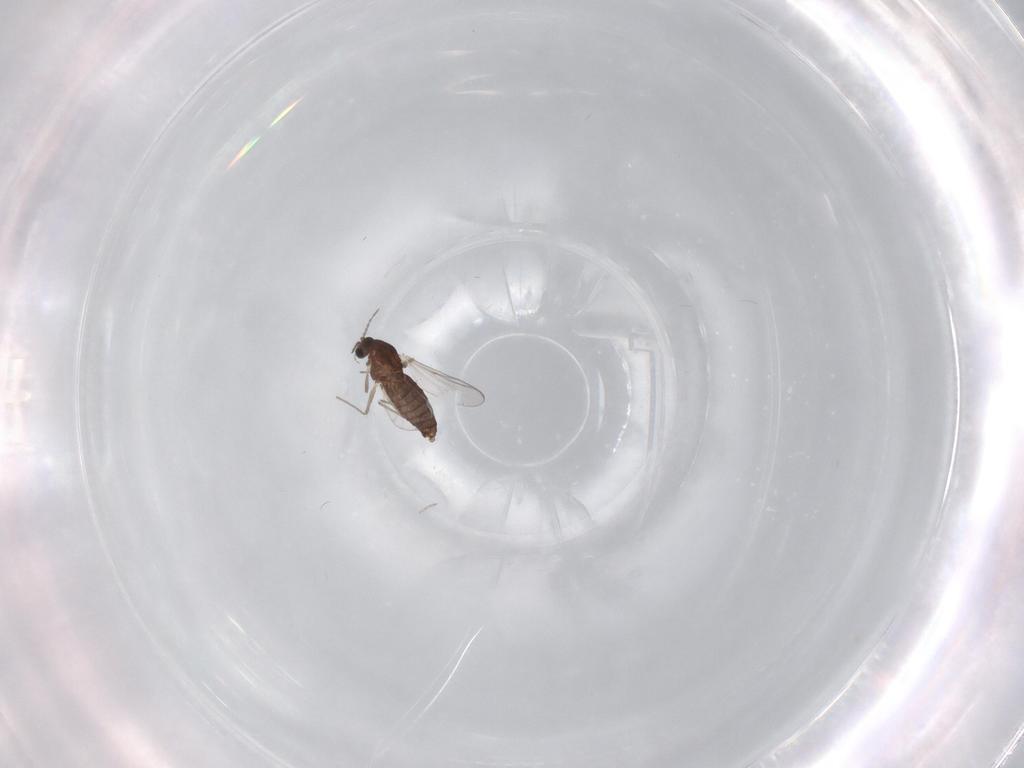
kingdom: Animalia
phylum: Arthropoda
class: Insecta
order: Diptera
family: Chironomidae
